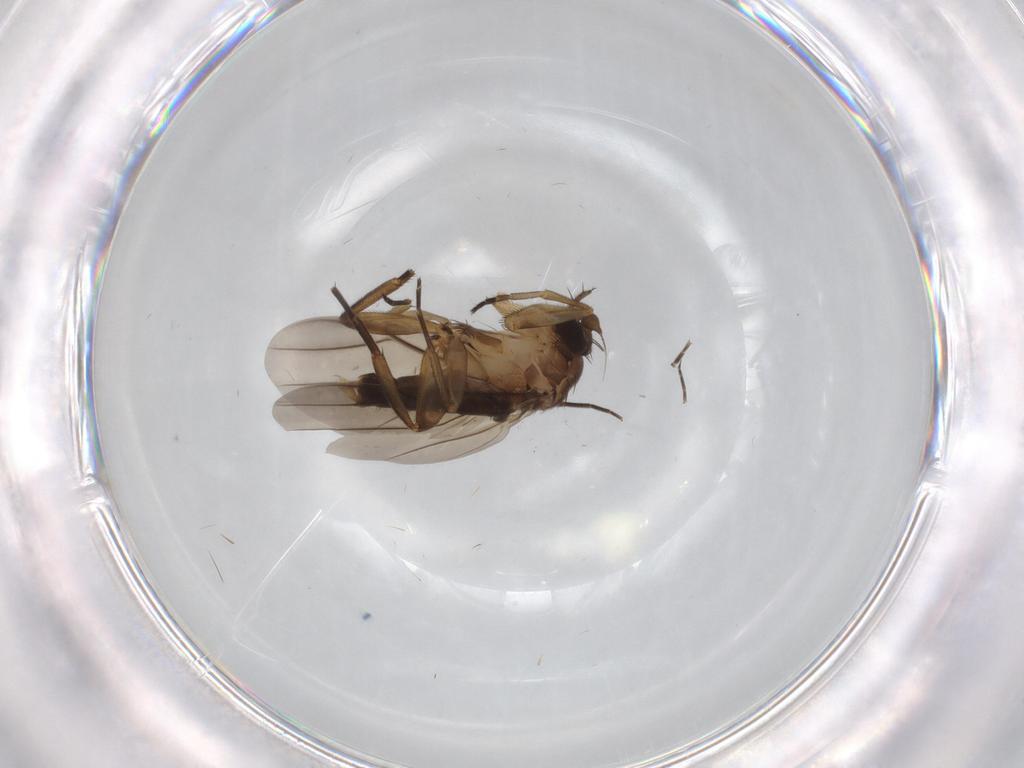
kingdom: Animalia
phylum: Arthropoda
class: Insecta
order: Diptera
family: Phoridae
